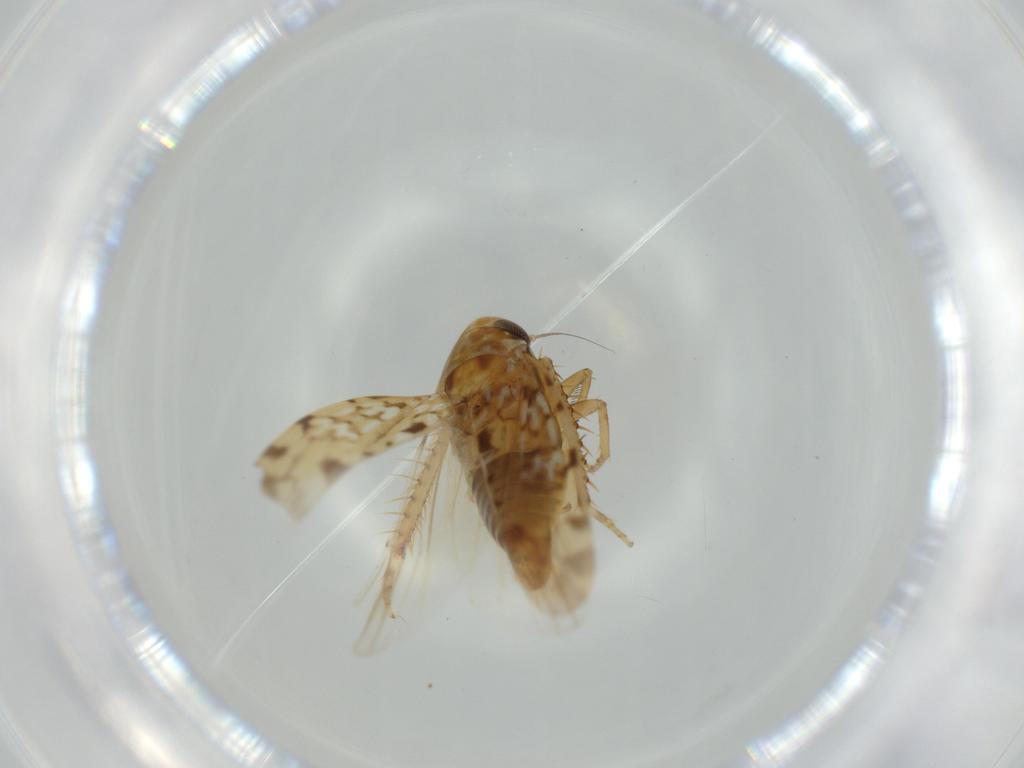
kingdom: Animalia
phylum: Arthropoda
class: Insecta
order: Hemiptera
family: Cicadellidae
